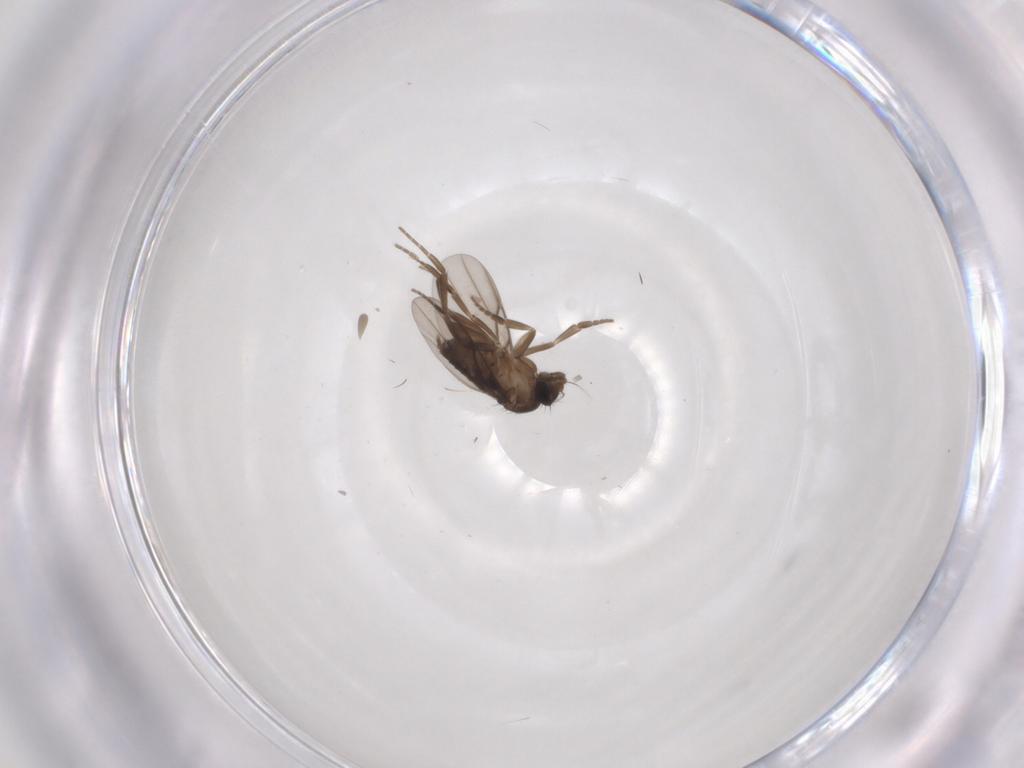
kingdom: Animalia
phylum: Arthropoda
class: Insecta
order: Diptera
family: Phoridae
